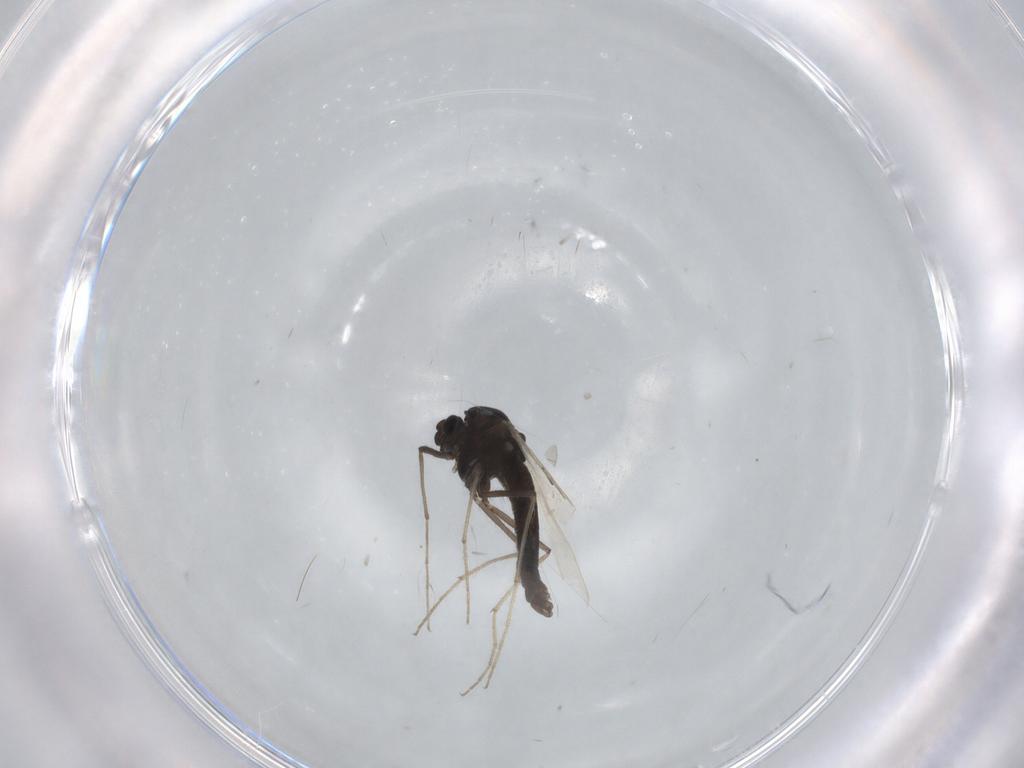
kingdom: Animalia
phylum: Arthropoda
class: Insecta
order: Diptera
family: Chironomidae
